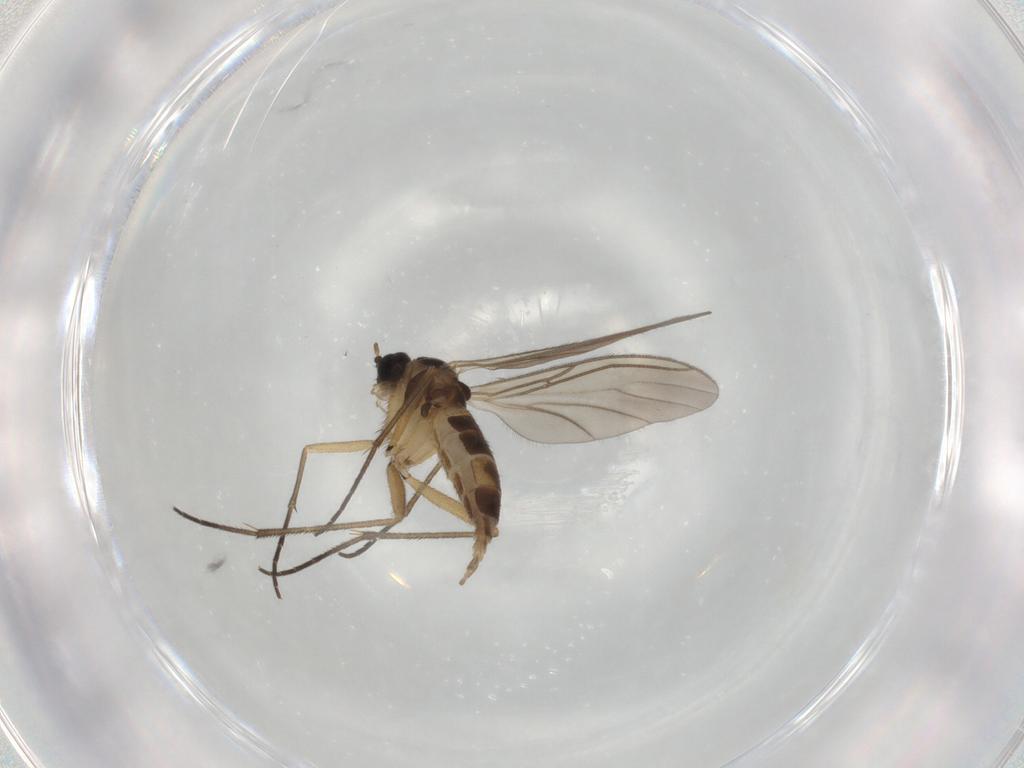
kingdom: Animalia
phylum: Arthropoda
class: Insecta
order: Diptera
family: Sciaridae
